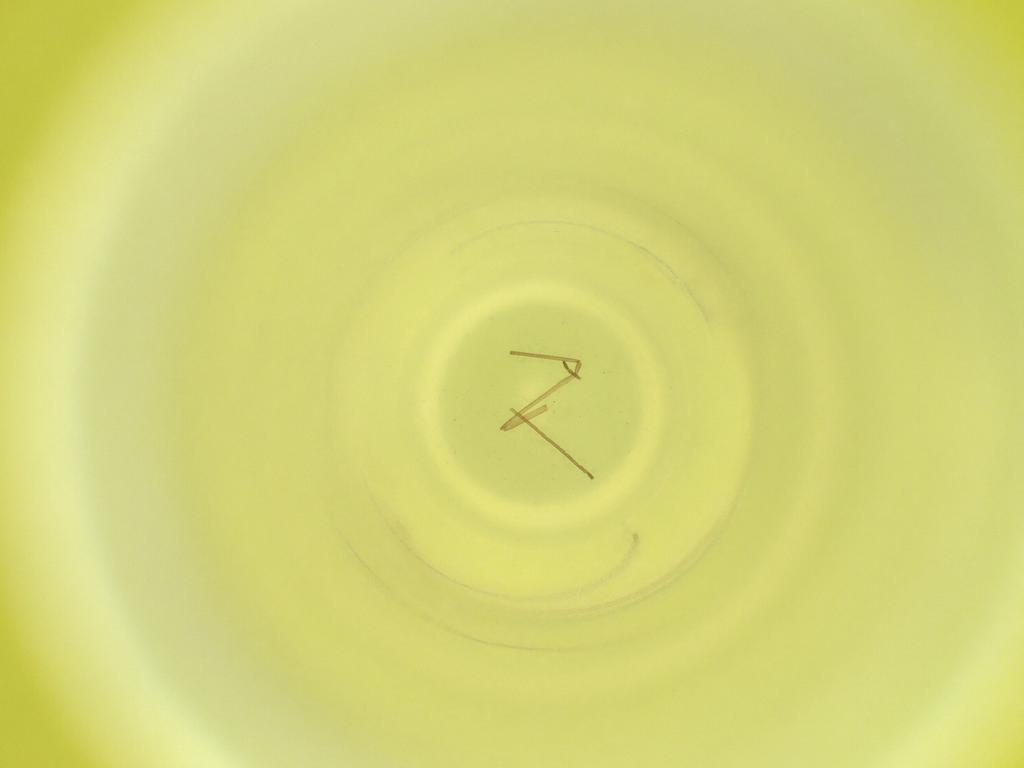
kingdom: Animalia
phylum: Arthropoda
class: Insecta
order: Diptera
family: Cecidomyiidae
